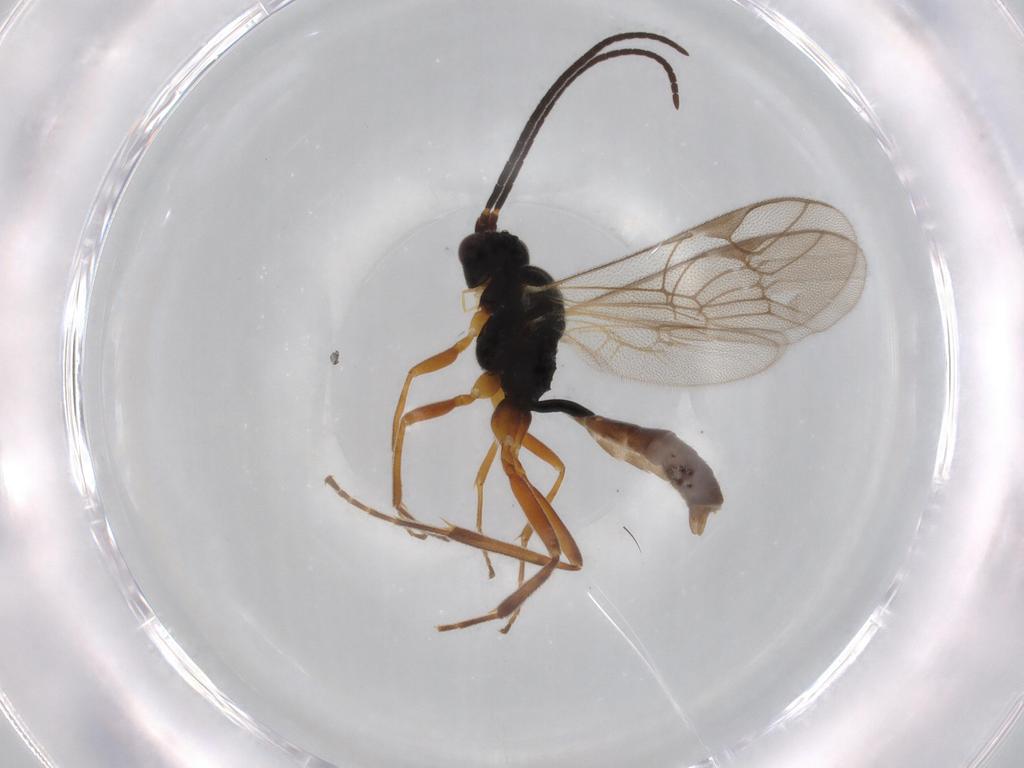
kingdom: Animalia
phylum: Arthropoda
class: Insecta
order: Hymenoptera
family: Ichneumonidae
